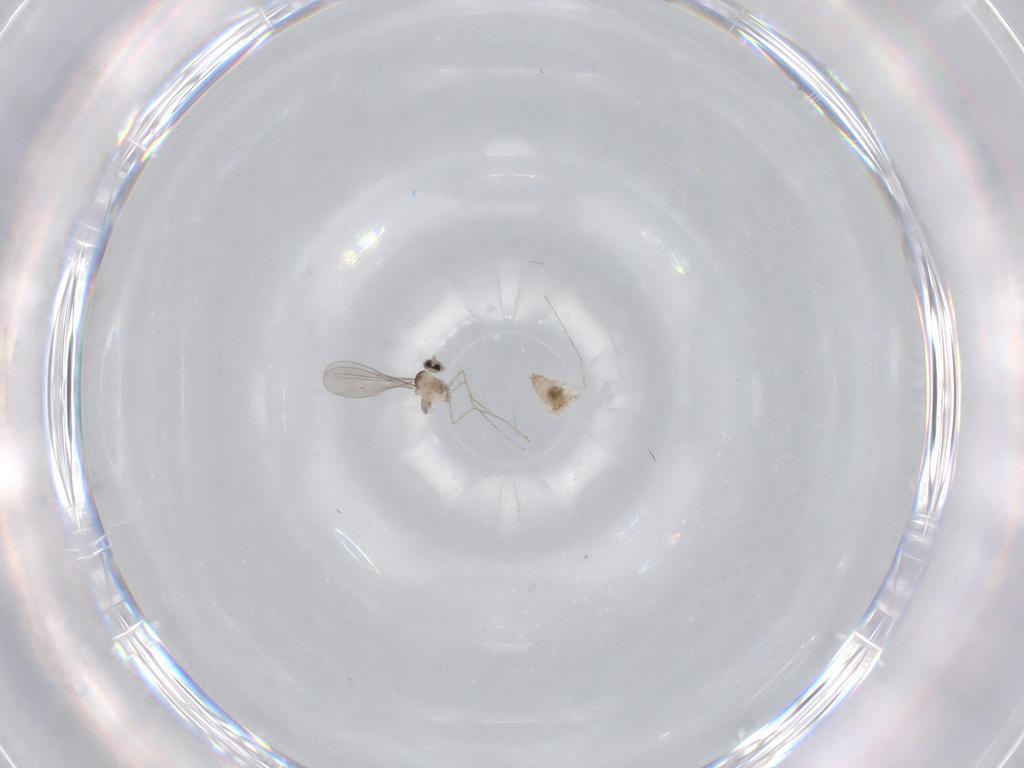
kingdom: Animalia
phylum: Arthropoda
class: Insecta
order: Diptera
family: Cecidomyiidae
